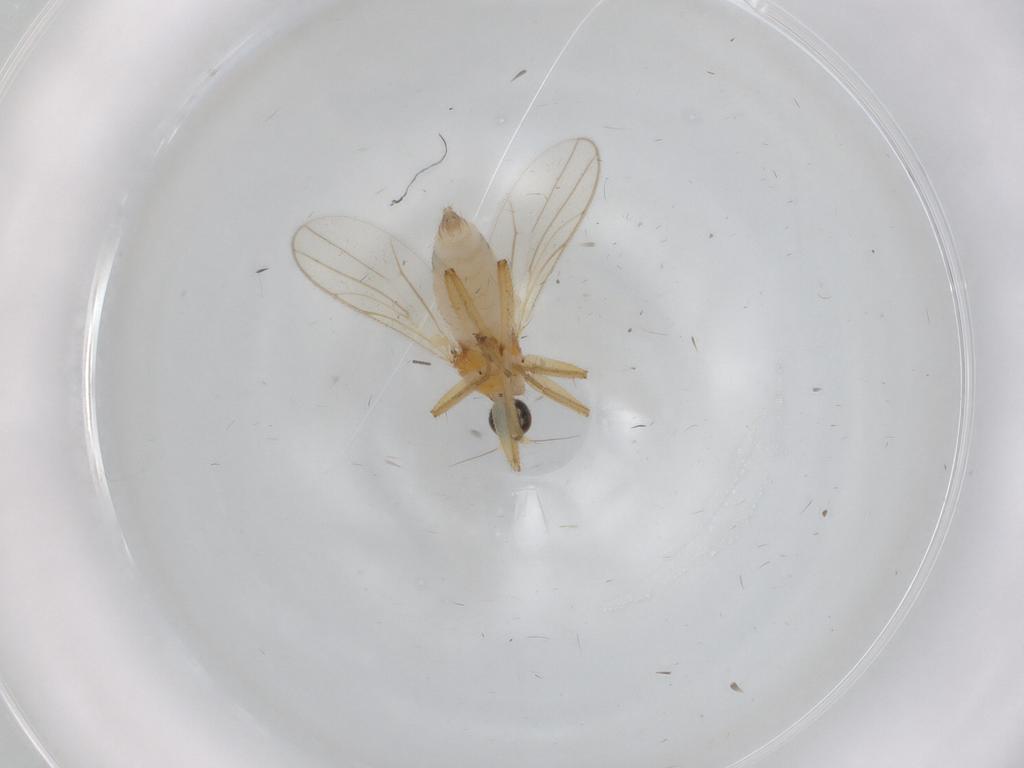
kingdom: Animalia
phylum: Arthropoda
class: Insecta
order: Diptera
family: Hybotidae
